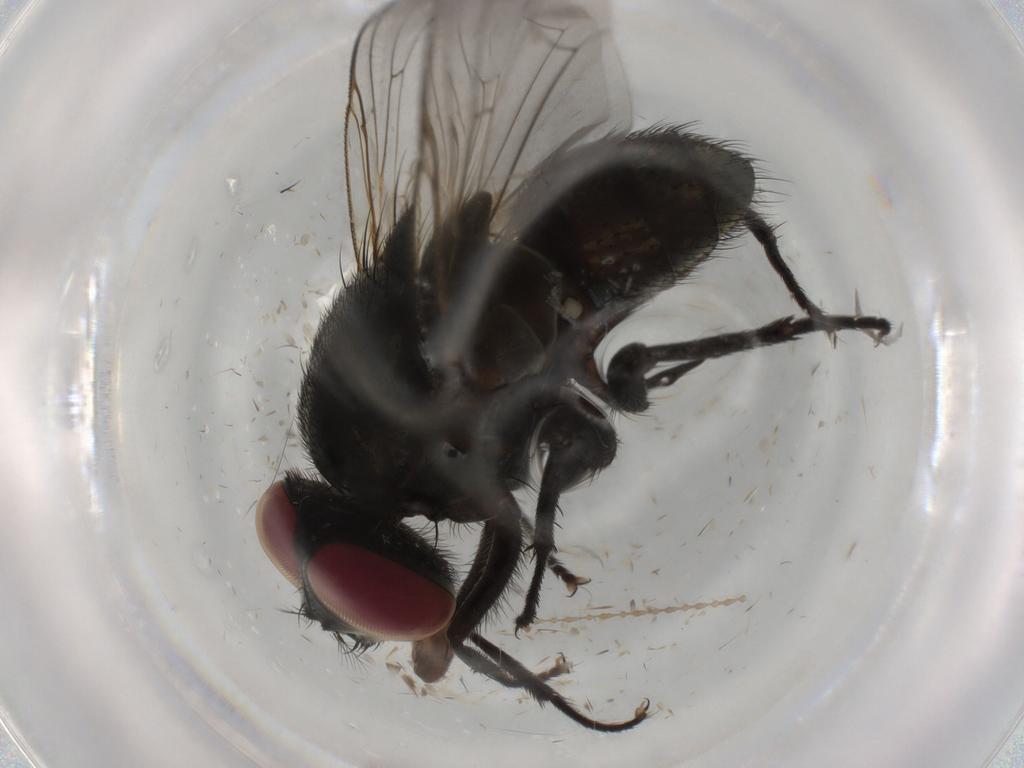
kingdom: Animalia
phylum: Arthropoda
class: Insecta
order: Diptera
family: Muscidae
